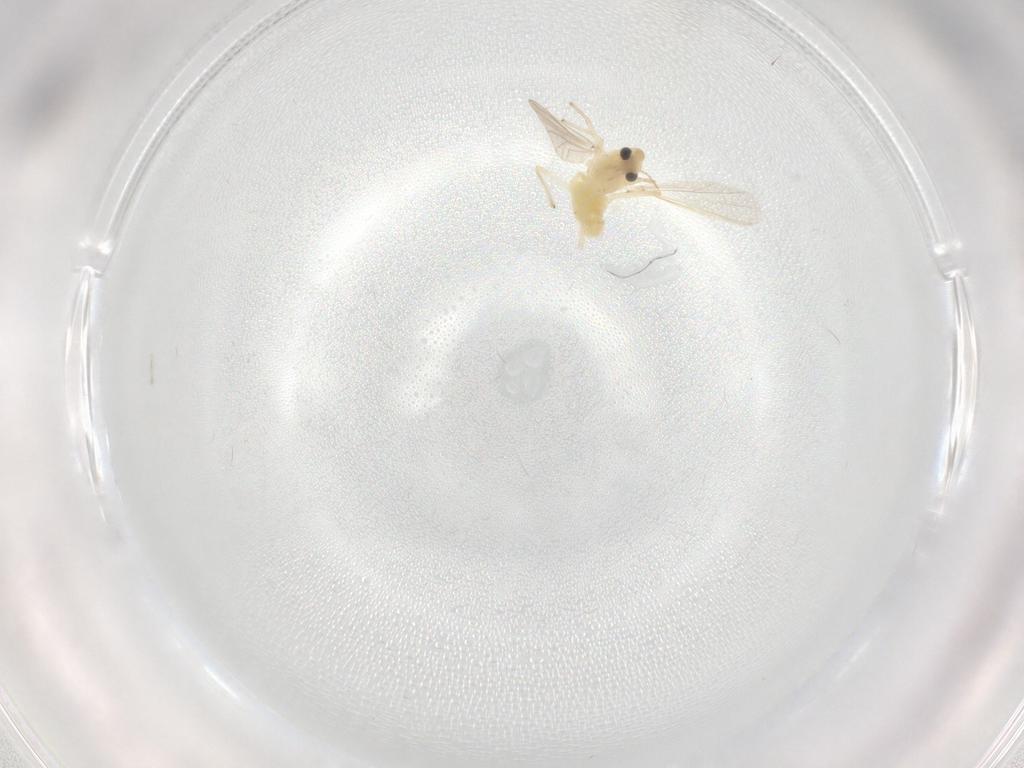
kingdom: Animalia
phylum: Arthropoda
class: Insecta
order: Diptera
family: Chironomidae
